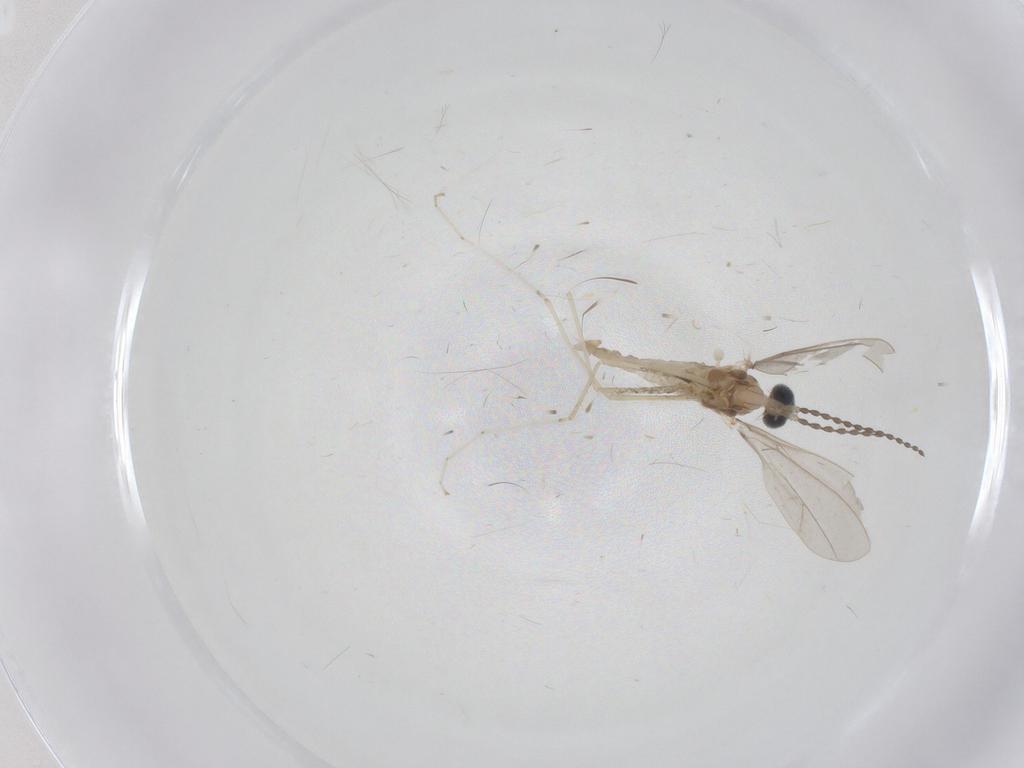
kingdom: Animalia
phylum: Arthropoda
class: Insecta
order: Diptera
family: Cecidomyiidae
